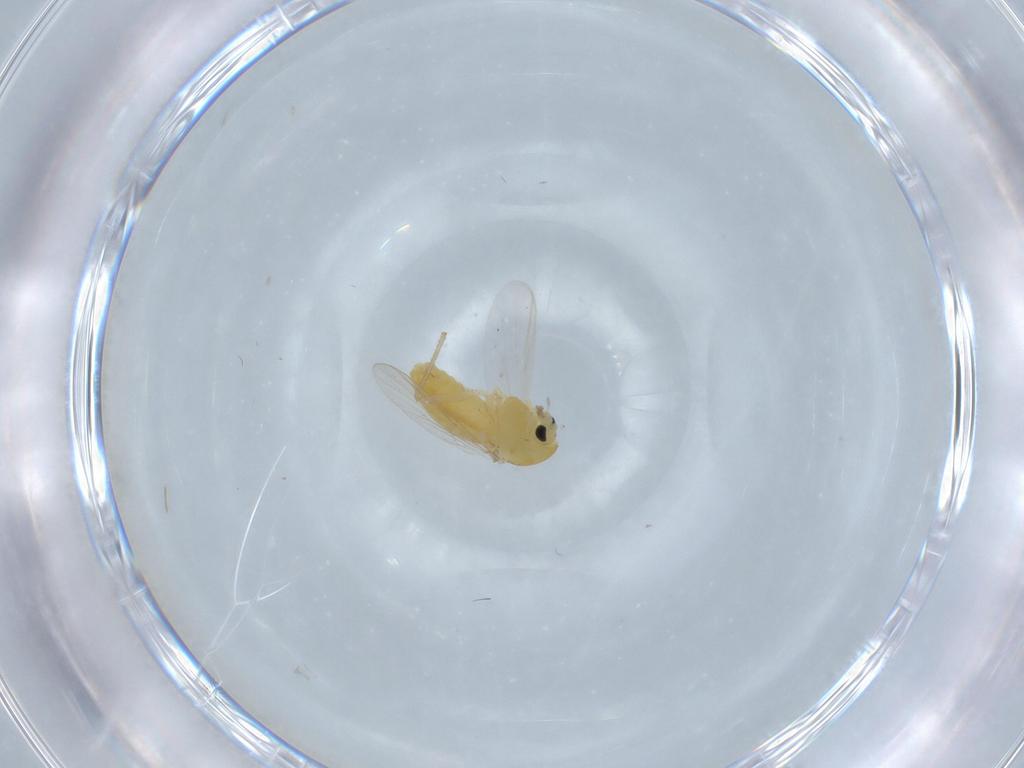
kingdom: Animalia
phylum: Arthropoda
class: Insecta
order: Diptera
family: Chironomidae
